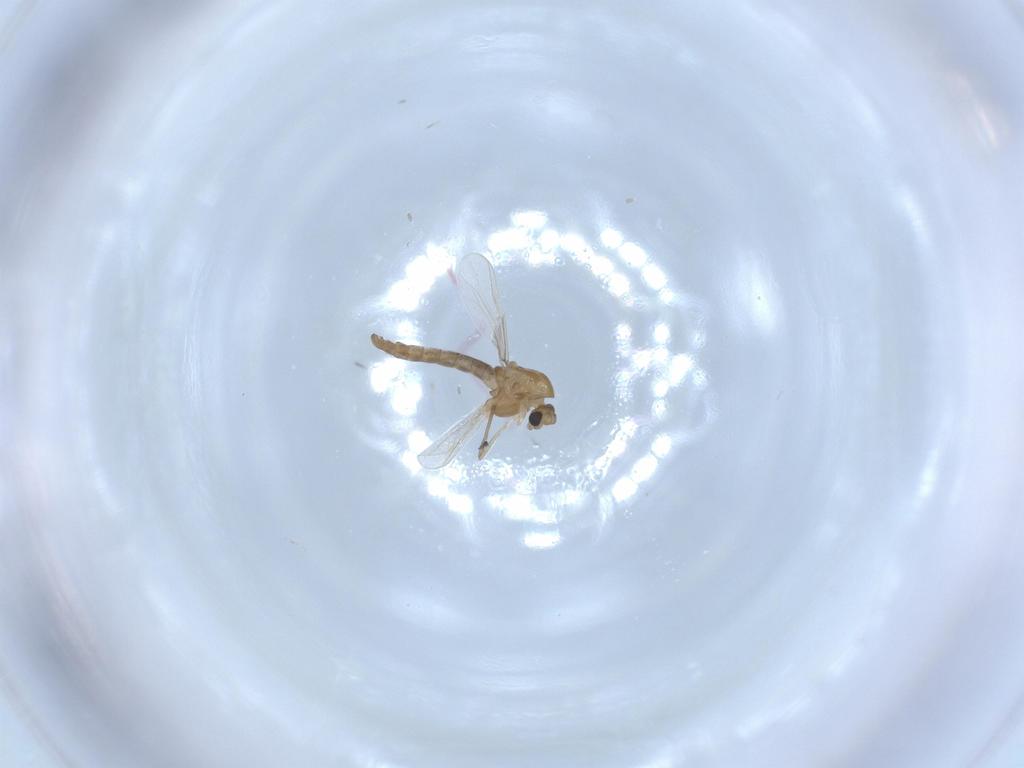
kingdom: Animalia
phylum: Arthropoda
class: Insecta
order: Diptera
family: Chironomidae
